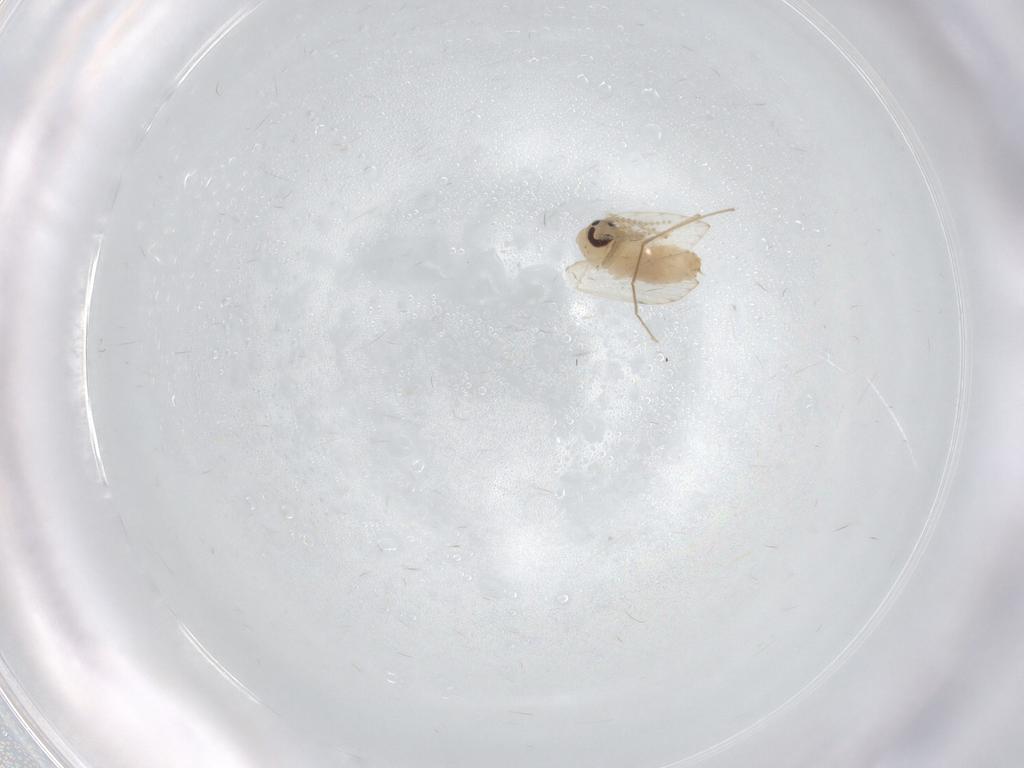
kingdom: Animalia
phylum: Arthropoda
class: Insecta
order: Diptera
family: Psychodidae
